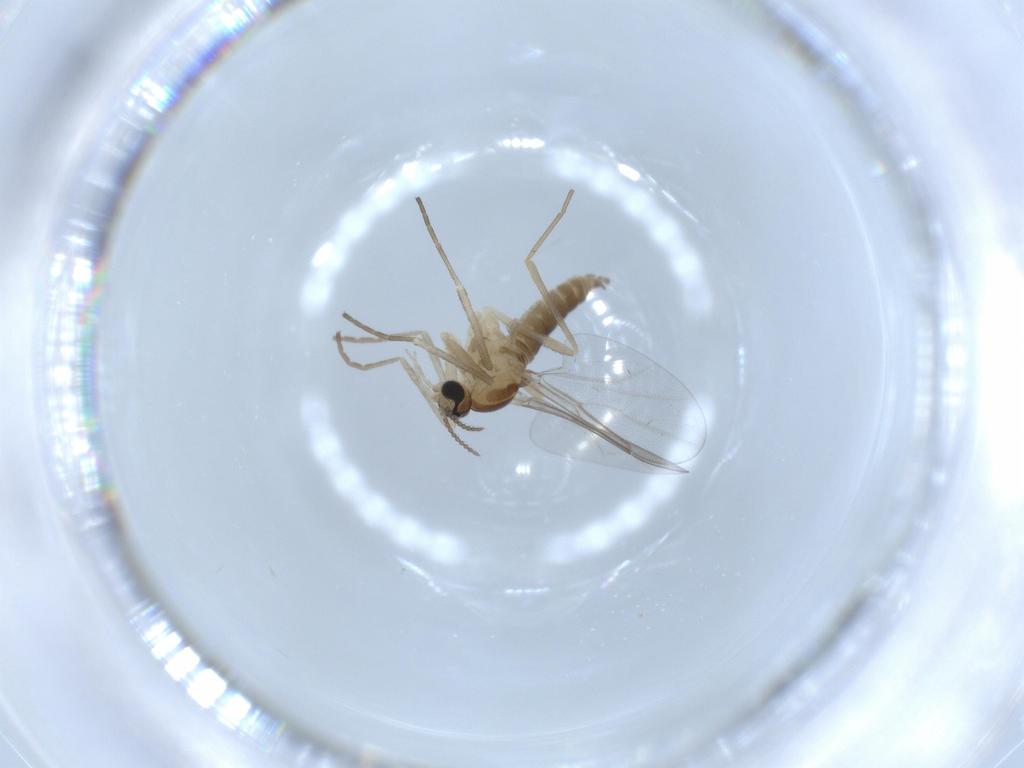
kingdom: Animalia
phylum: Arthropoda
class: Insecta
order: Diptera
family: Cecidomyiidae
